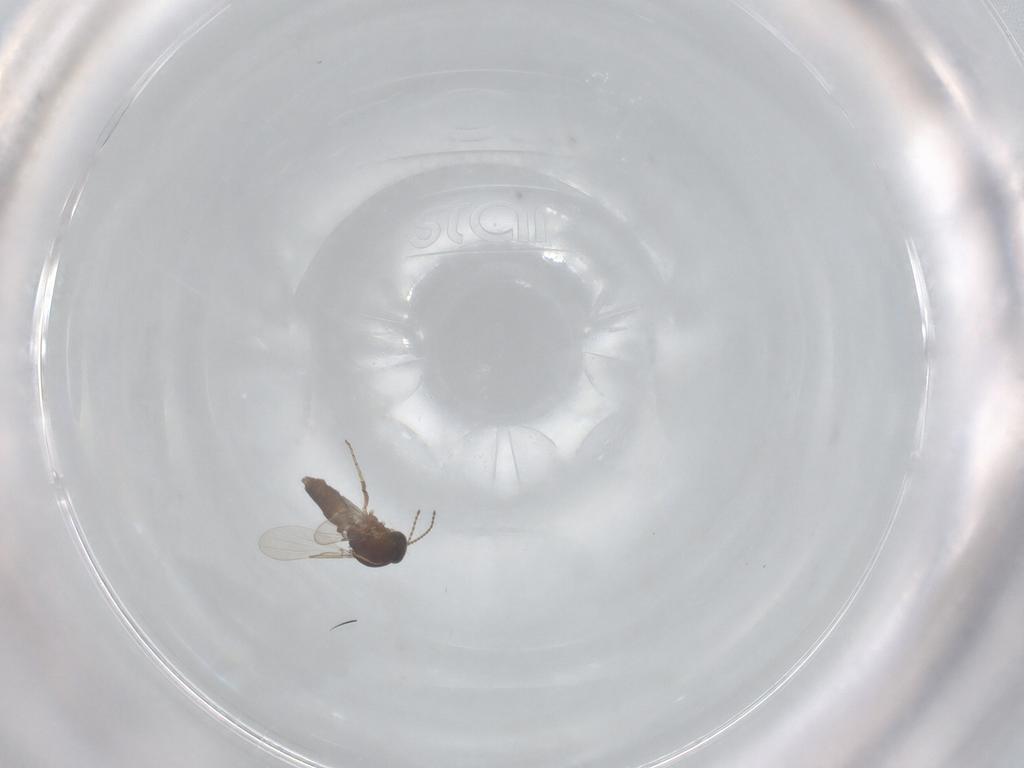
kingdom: Animalia
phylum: Arthropoda
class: Insecta
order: Diptera
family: Ceratopogonidae
